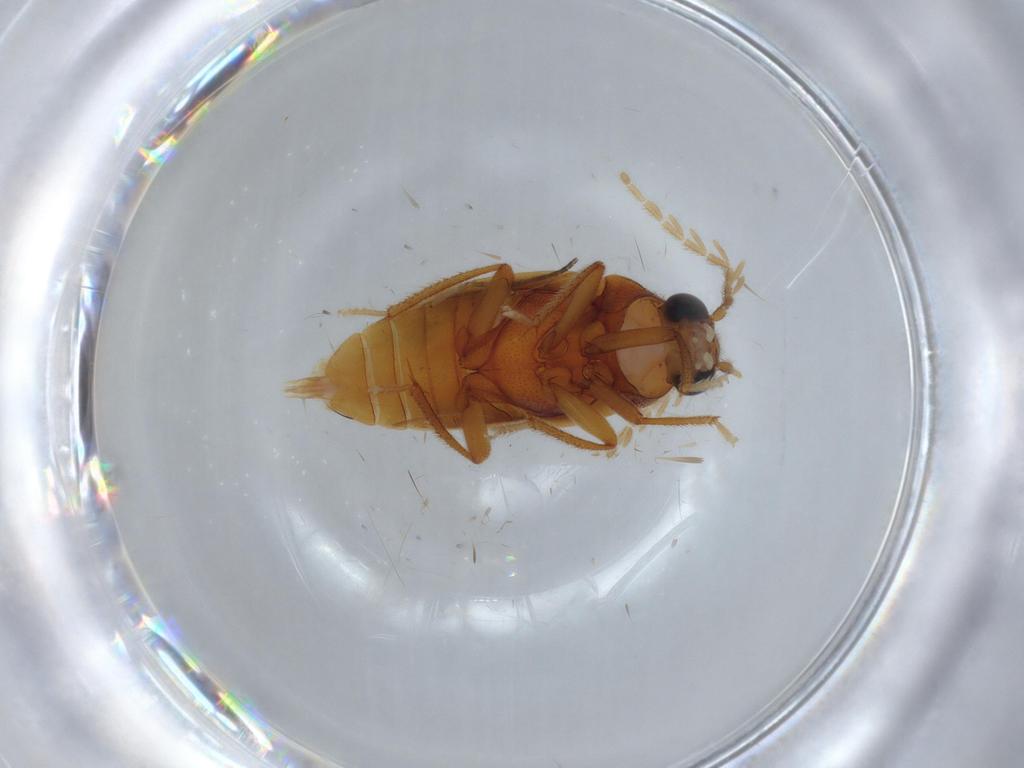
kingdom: Animalia
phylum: Arthropoda
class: Insecta
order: Coleoptera
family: Ptilodactylidae
